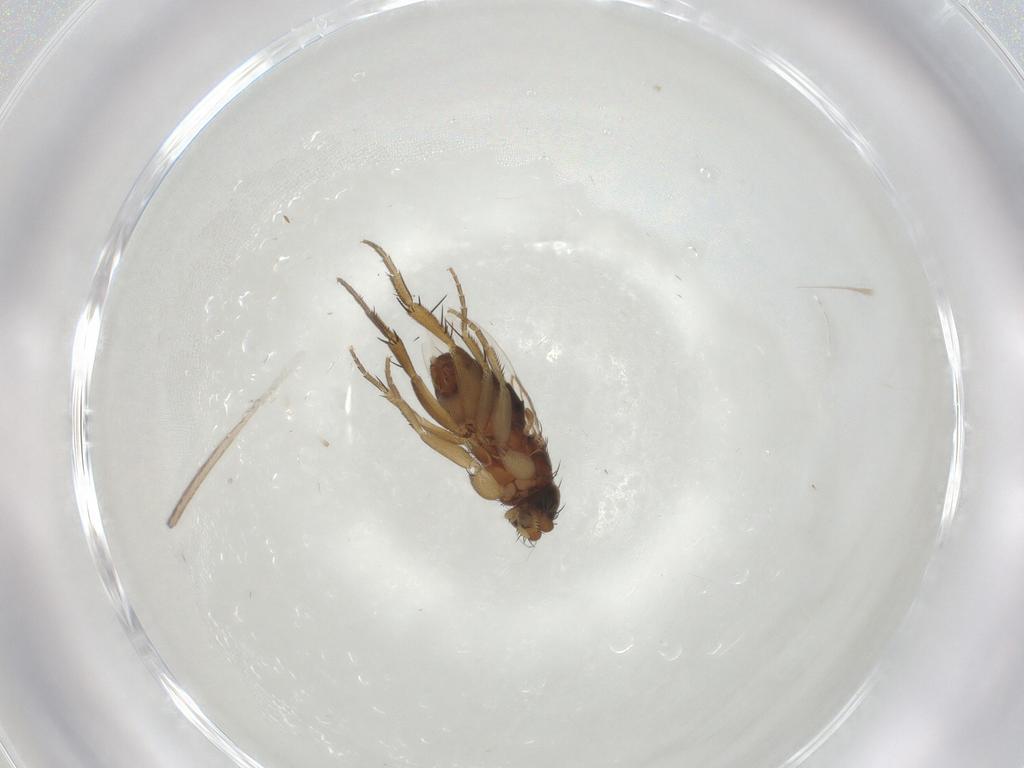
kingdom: Animalia
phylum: Arthropoda
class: Insecta
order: Diptera
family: Phoridae
